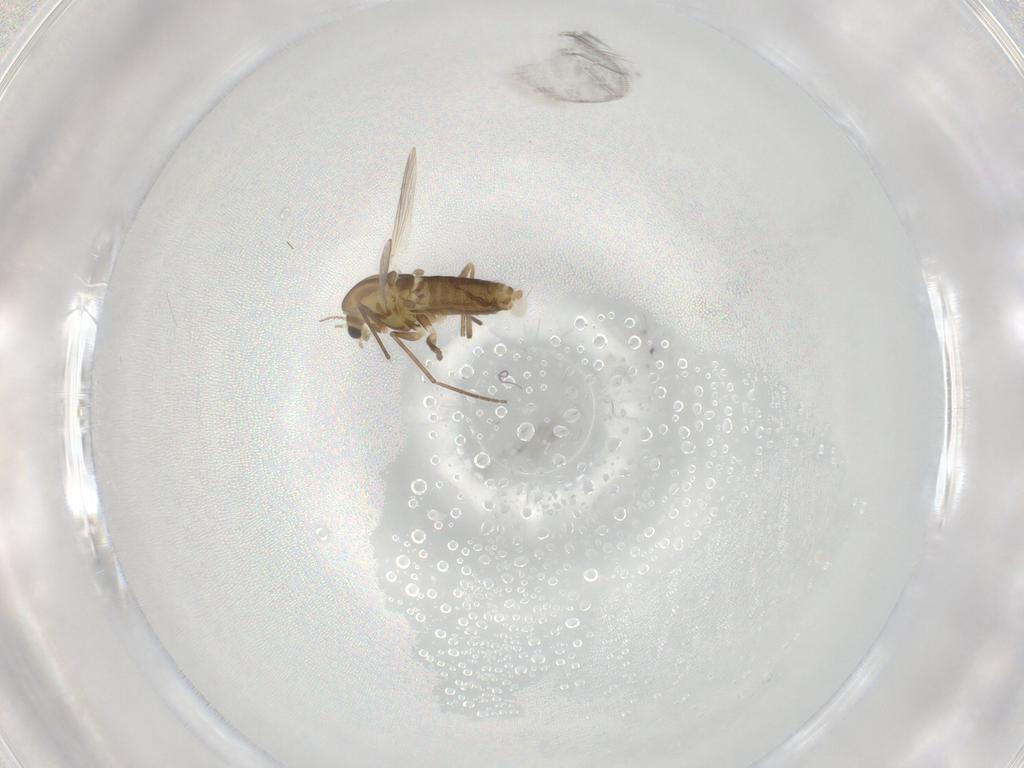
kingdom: Animalia
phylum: Arthropoda
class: Insecta
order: Diptera
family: Chironomidae
